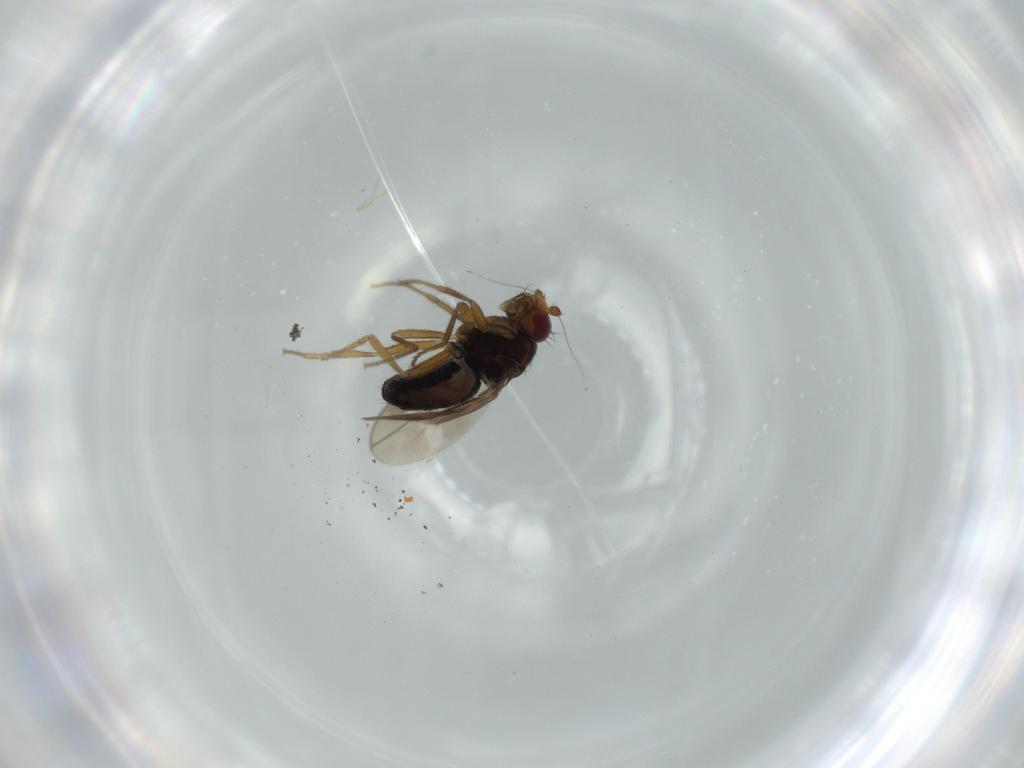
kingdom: Animalia
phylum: Arthropoda
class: Insecta
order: Diptera
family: Sphaeroceridae
